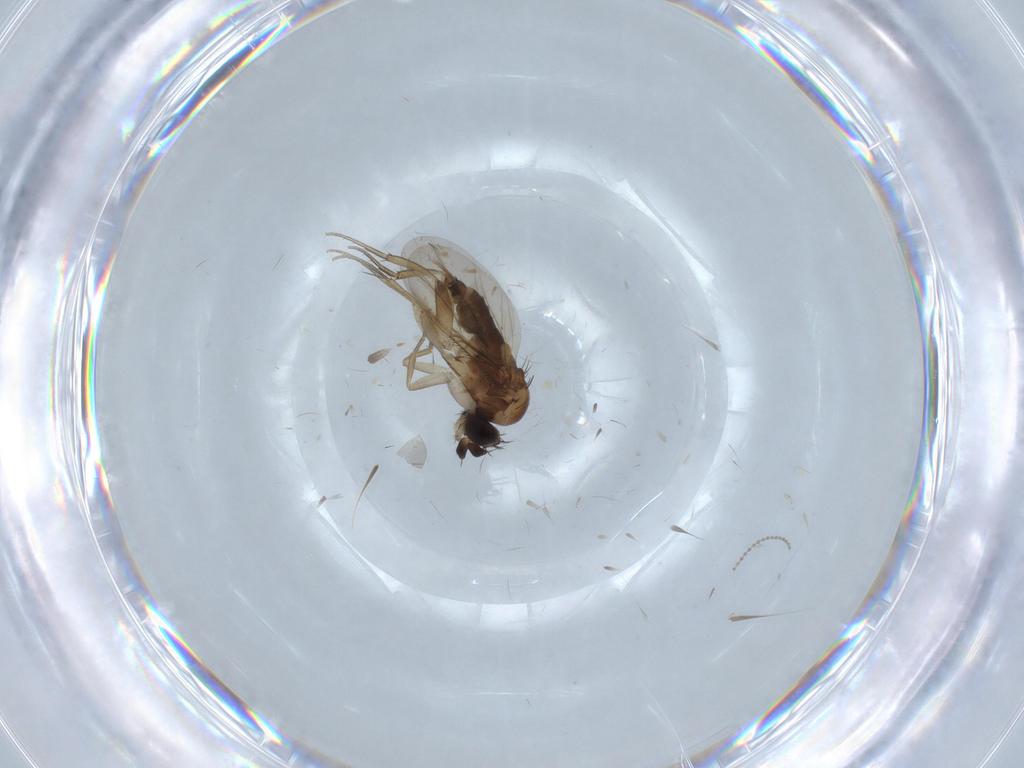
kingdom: Animalia
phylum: Arthropoda
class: Insecta
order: Diptera
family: Phoridae
